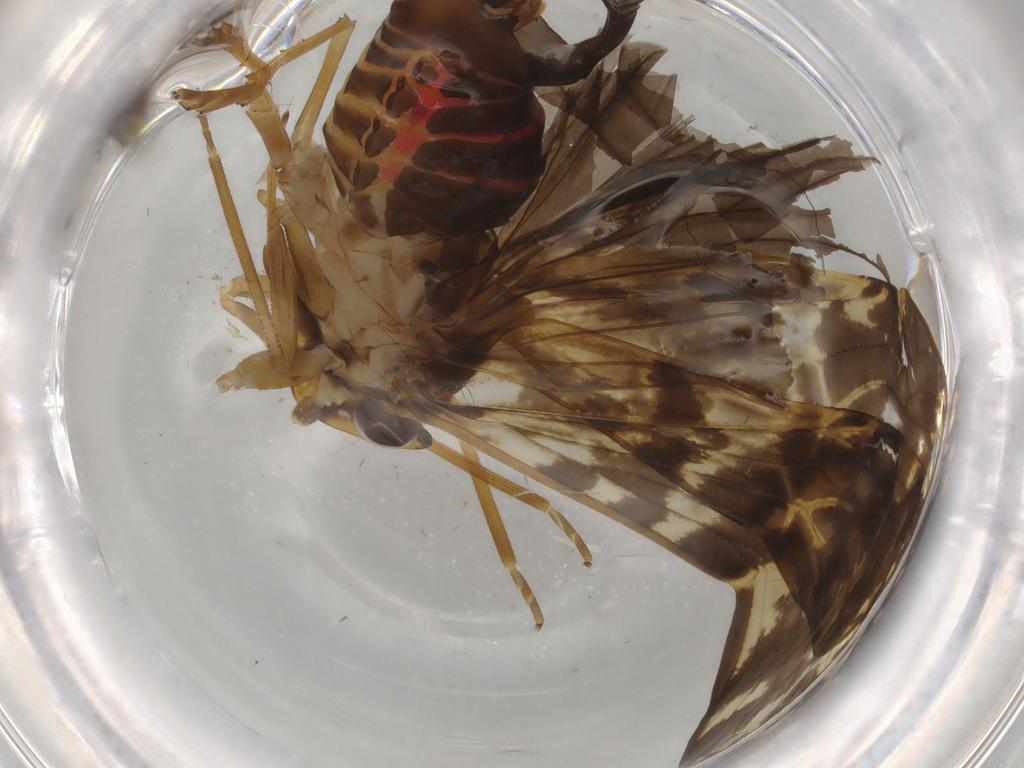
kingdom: Animalia
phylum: Arthropoda
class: Insecta
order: Hemiptera
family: Cixiidae
